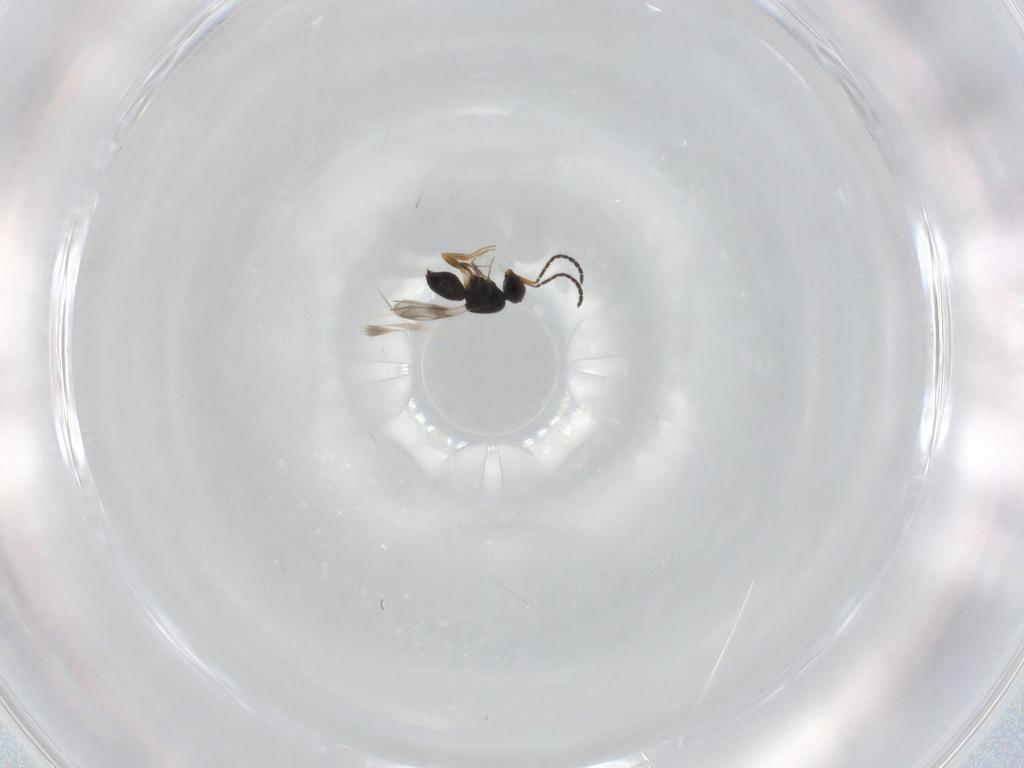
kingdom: Animalia
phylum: Arthropoda
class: Insecta
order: Hymenoptera
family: Ceraphronidae
